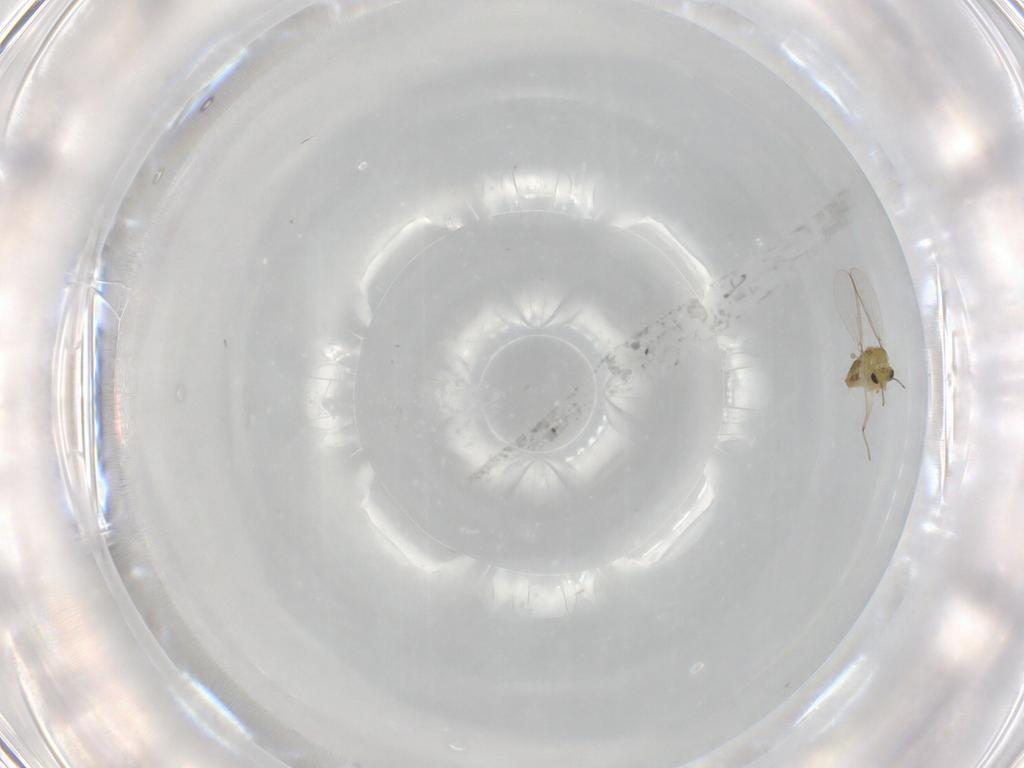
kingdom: Animalia
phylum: Arthropoda
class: Insecta
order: Diptera
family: Chironomidae
